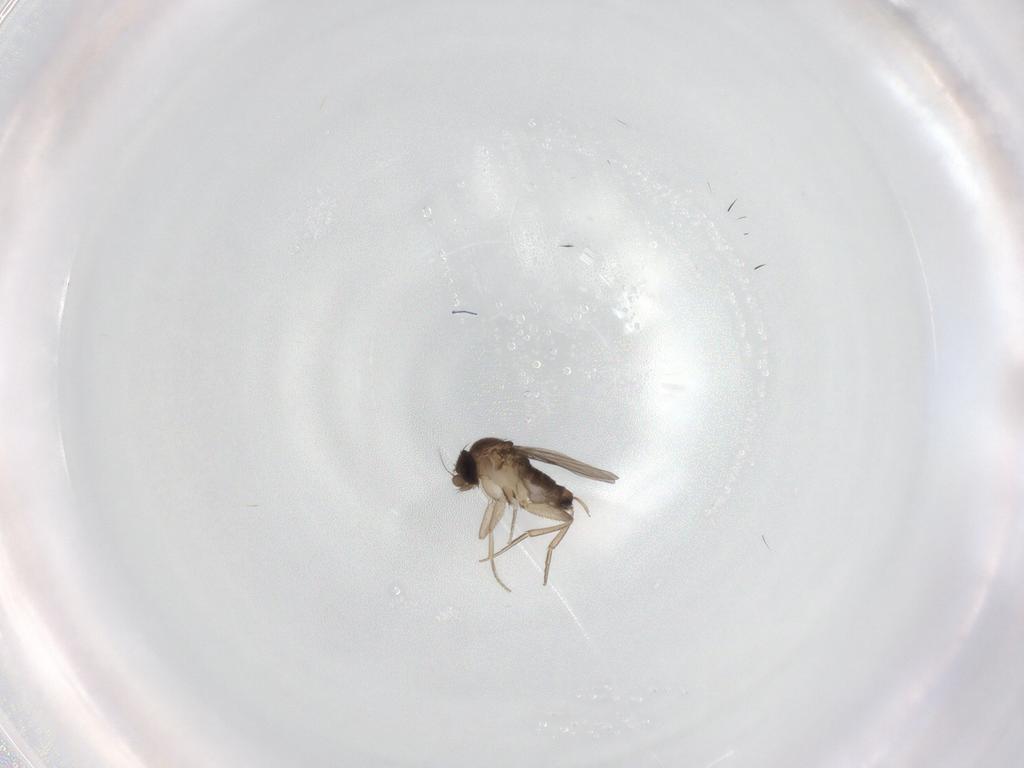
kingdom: Animalia
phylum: Arthropoda
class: Insecta
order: Diptera
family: Phoridae
